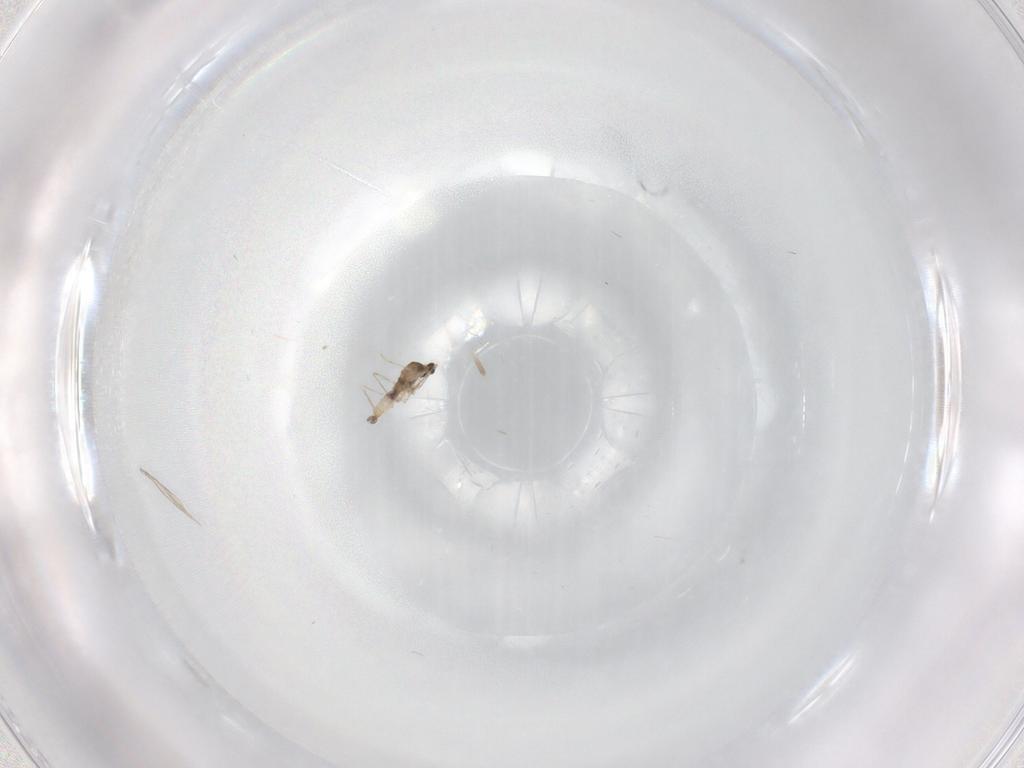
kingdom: Animalia
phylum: Arthropoda
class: Insecta
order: Diptera
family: Cecidomyiidae
